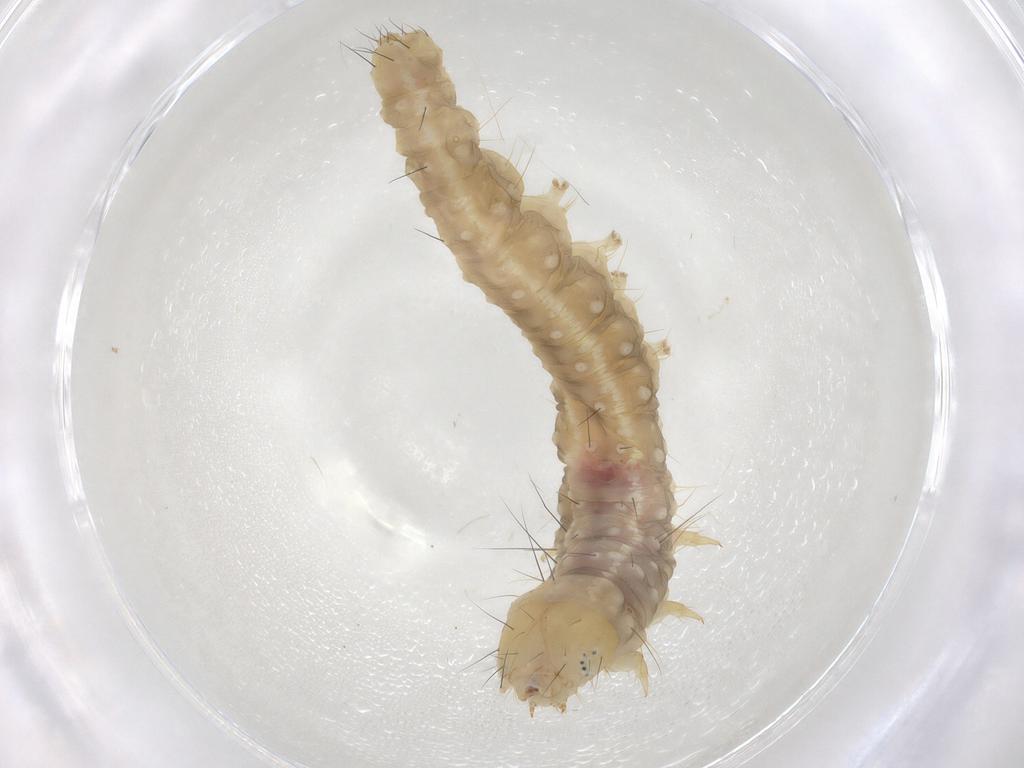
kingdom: Animalia
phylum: Arthropoda
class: Insecta
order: Lepidoptera
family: Gelechiidae
